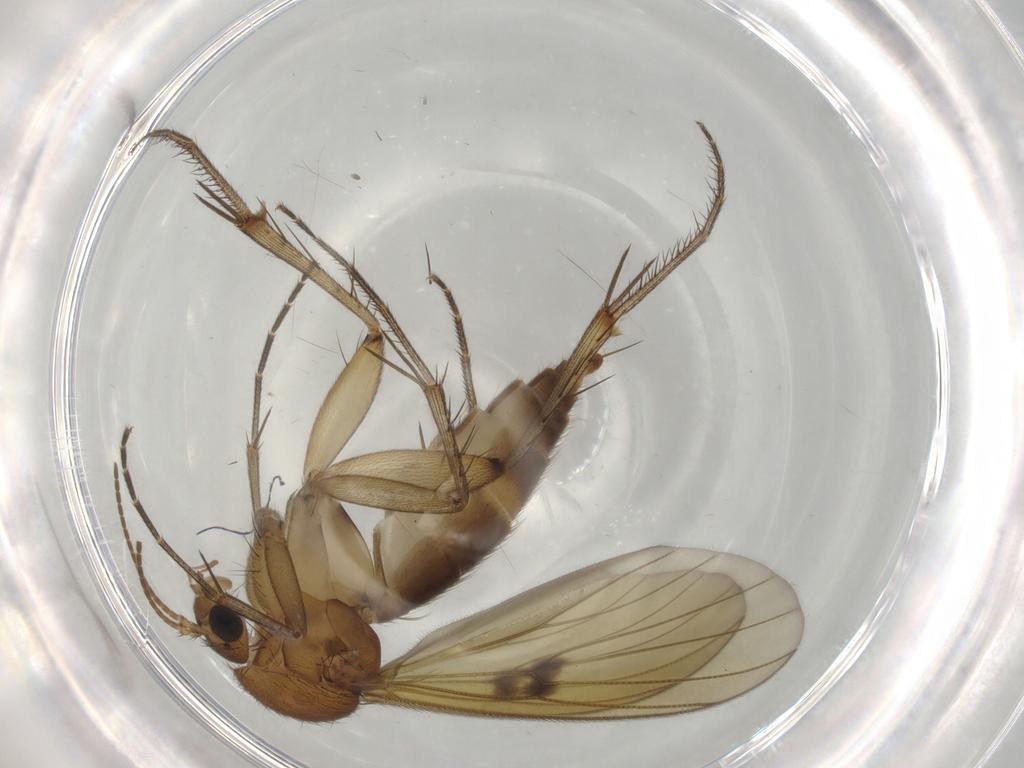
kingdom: Animalia
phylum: Arthropoda
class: Insecta
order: Diptera
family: Mycetophilidae
